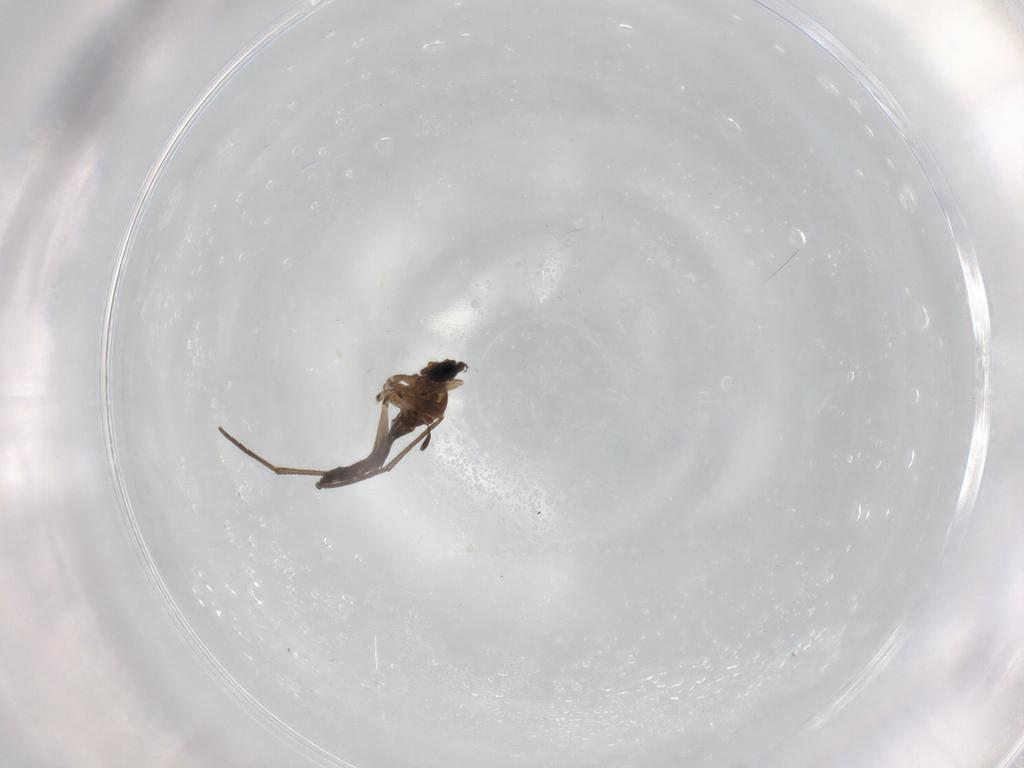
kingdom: Animalia
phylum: Arthropoda
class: Insecta
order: Diptera
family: Sciaridae
